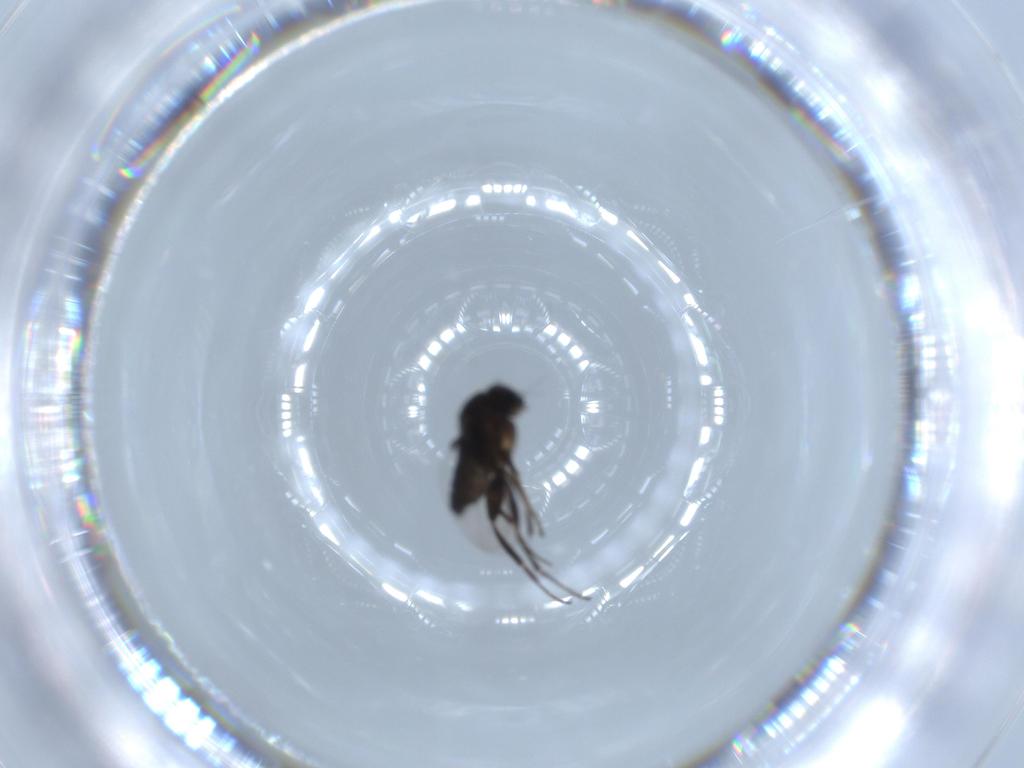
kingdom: Animalia
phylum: Arthropoda
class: Insecta
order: Diptera
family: Phoridae
